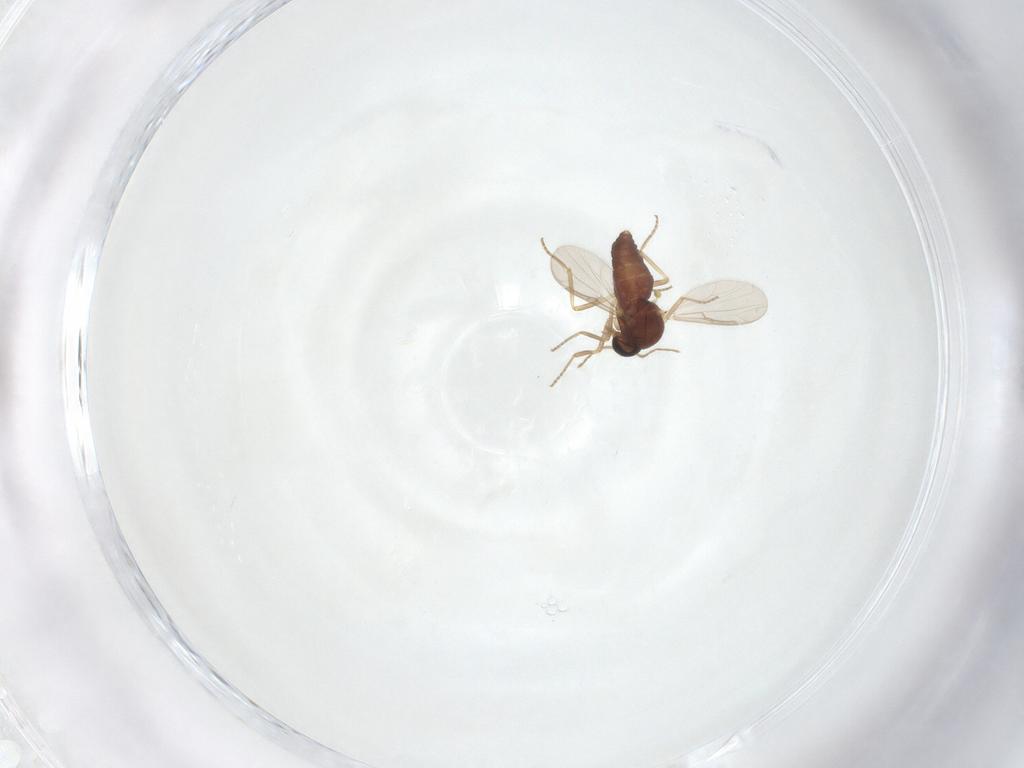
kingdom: Animalia
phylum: Arthropoda
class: Insecta
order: Diptera
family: Ceratopogonidae
